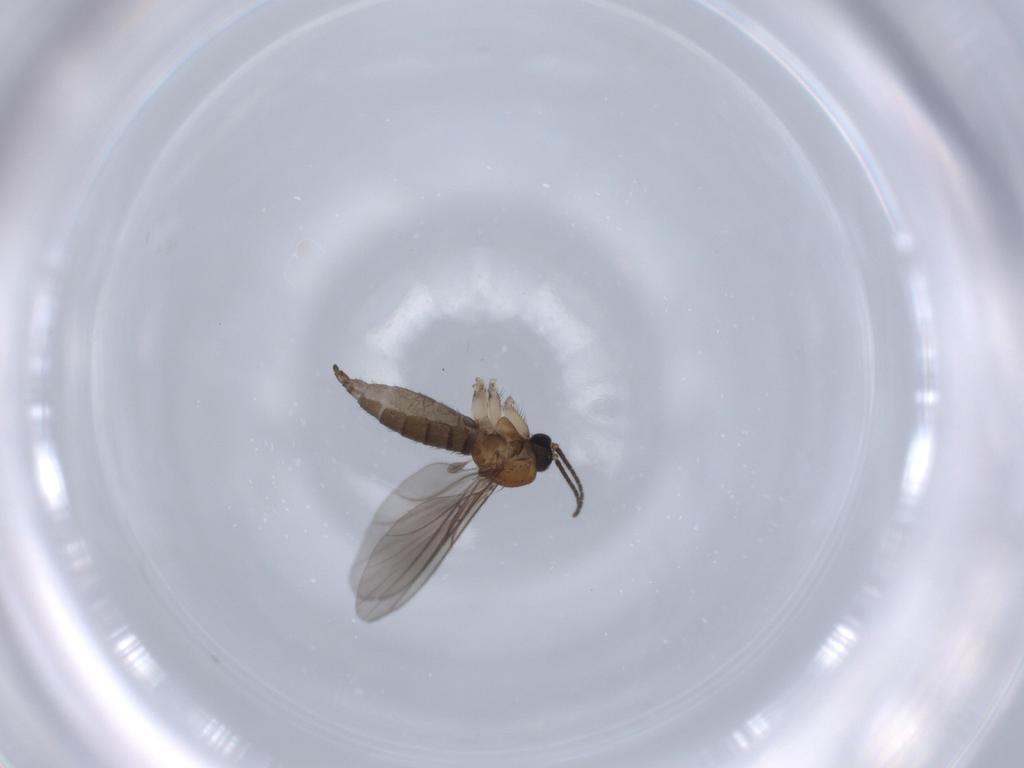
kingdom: Animalia
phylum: Arthropoda
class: Insecta
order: Diptera
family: Sciaridae
